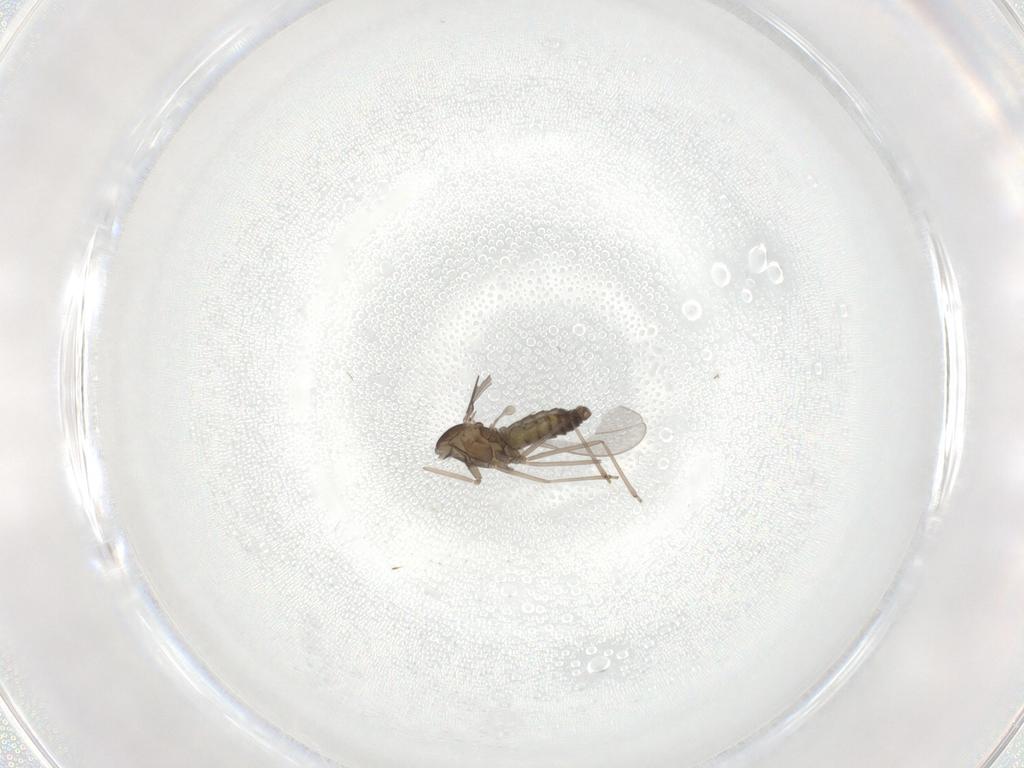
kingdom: Animalia
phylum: Arthropoda
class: Insecta
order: Diptera
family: Cecidomyiidae
